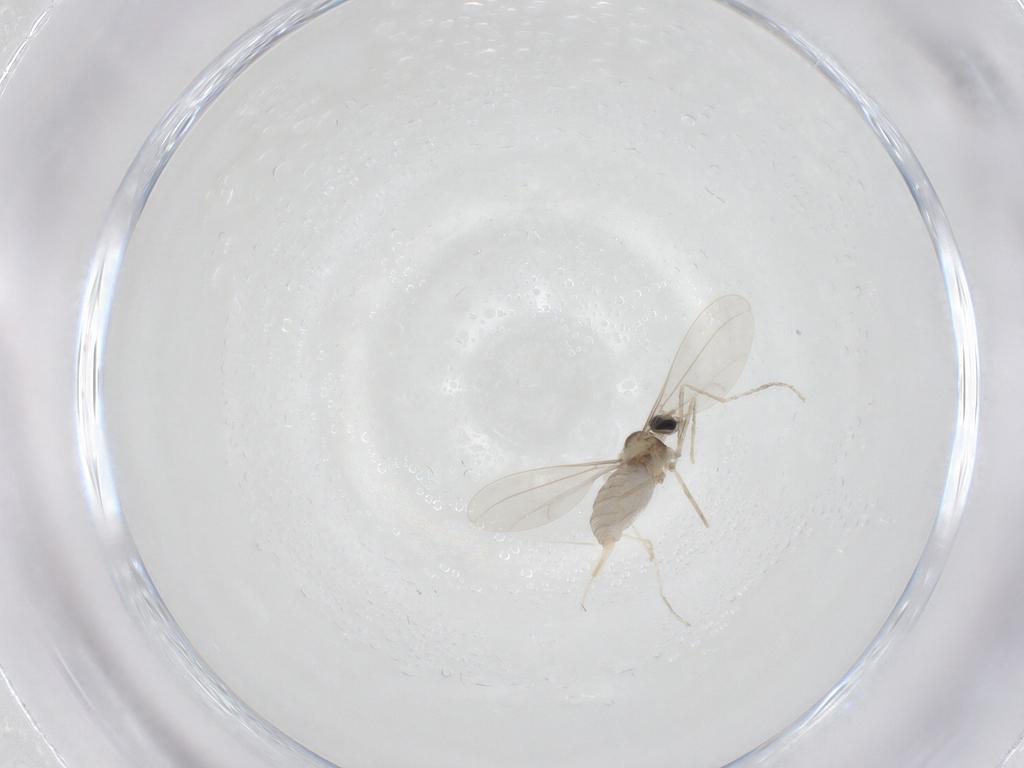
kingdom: Animalia
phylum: Arthropoda
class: Insecta
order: Diptera
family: Cecidomyiidae
